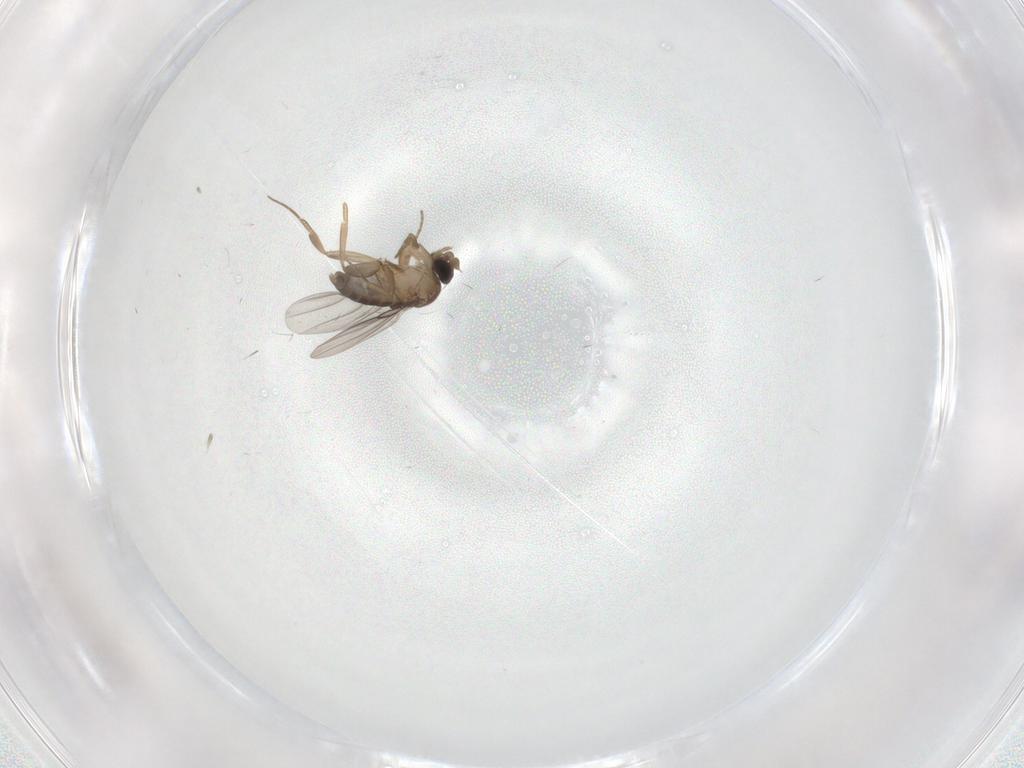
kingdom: Animalia
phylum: Arthropoda
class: Insecta
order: Diptera
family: Phoridae
